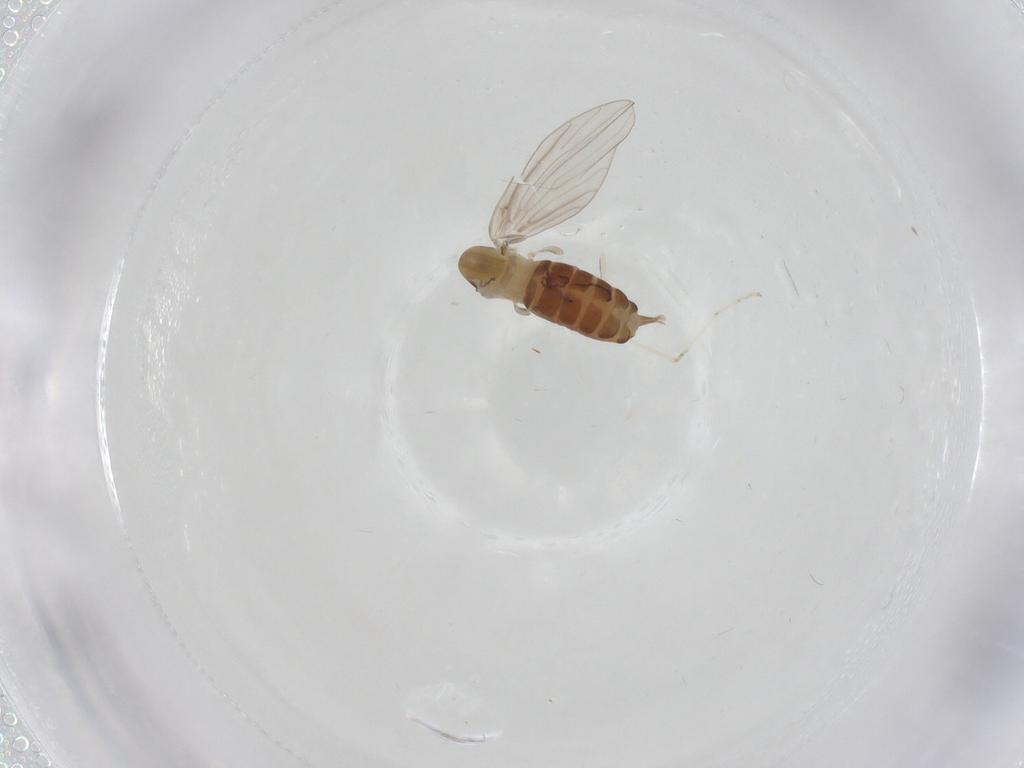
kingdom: Animalia
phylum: Arthropoda
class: Insecta
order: Diptera
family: Cecidomyiidae
